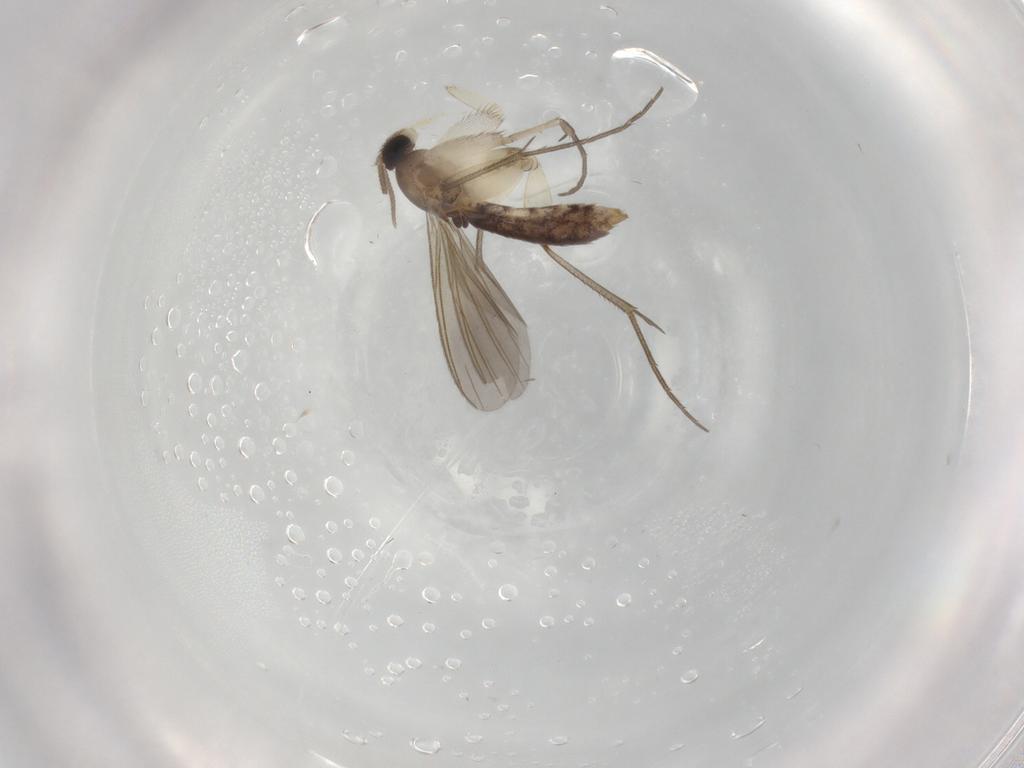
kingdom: Animalia
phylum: Arthropoda
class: Insecta
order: Diptera
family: Mycetophilidae
